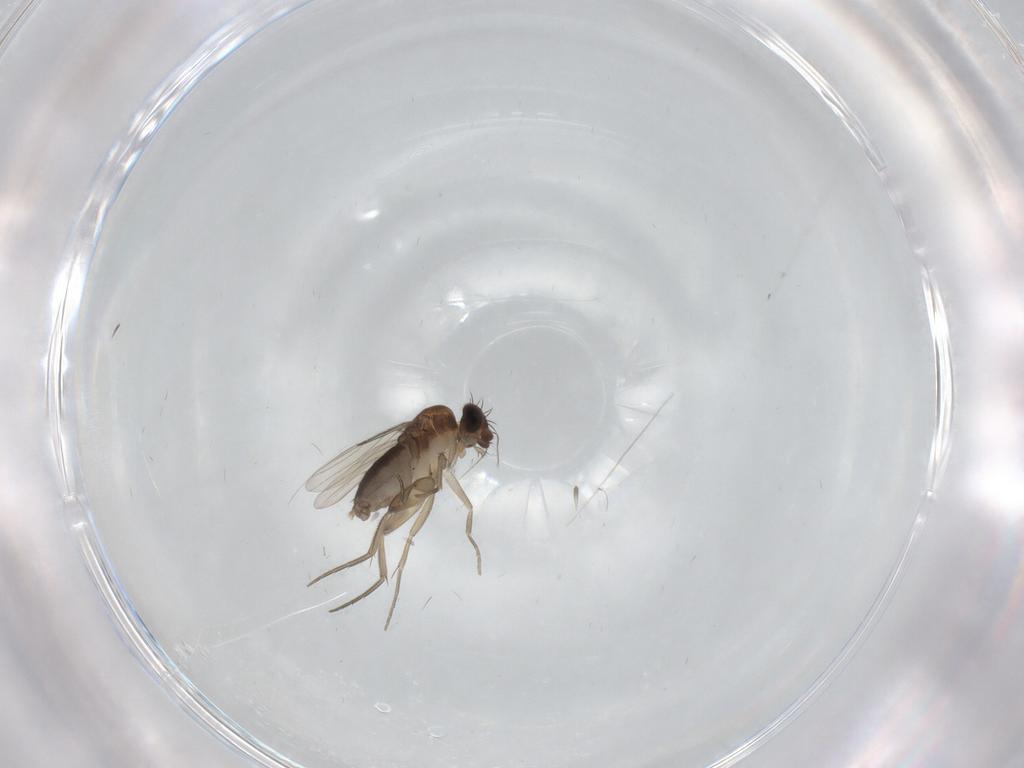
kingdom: Animalia
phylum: Arthropoda
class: Insecta
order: Diptera
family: Phoridae
